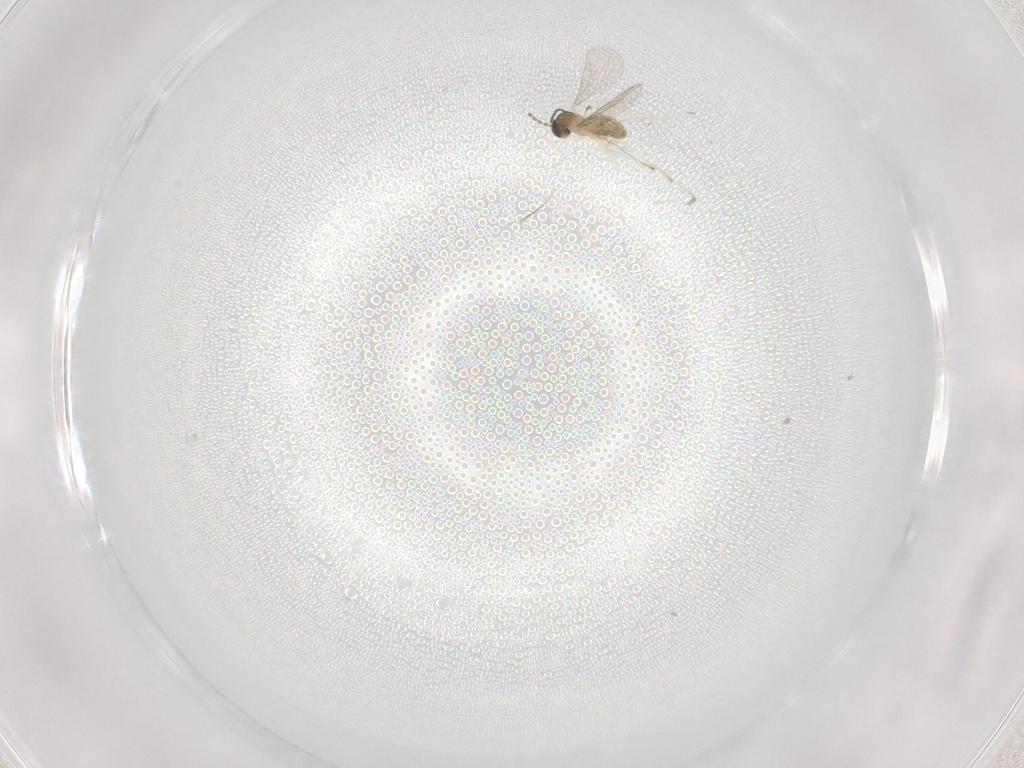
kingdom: Animalia
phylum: Arthropoda
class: Insecta
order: Diptera
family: Cecidomyiidae
